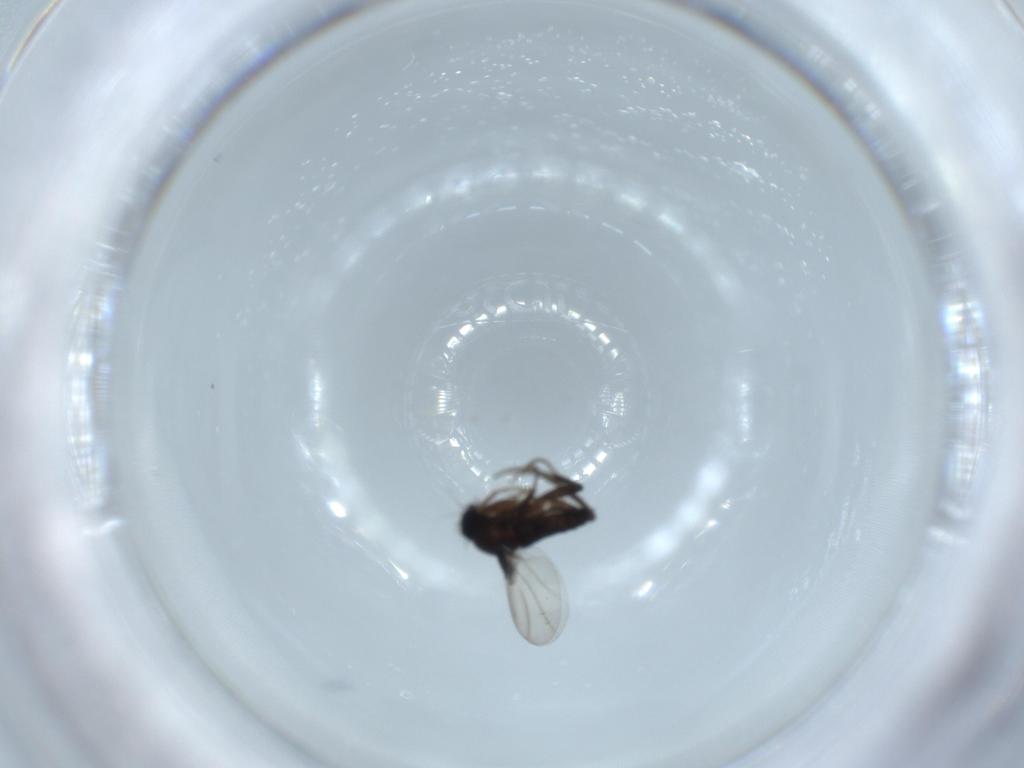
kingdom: Animalia
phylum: Arthropoda
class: Insecta
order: Diptera
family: Phoridae
